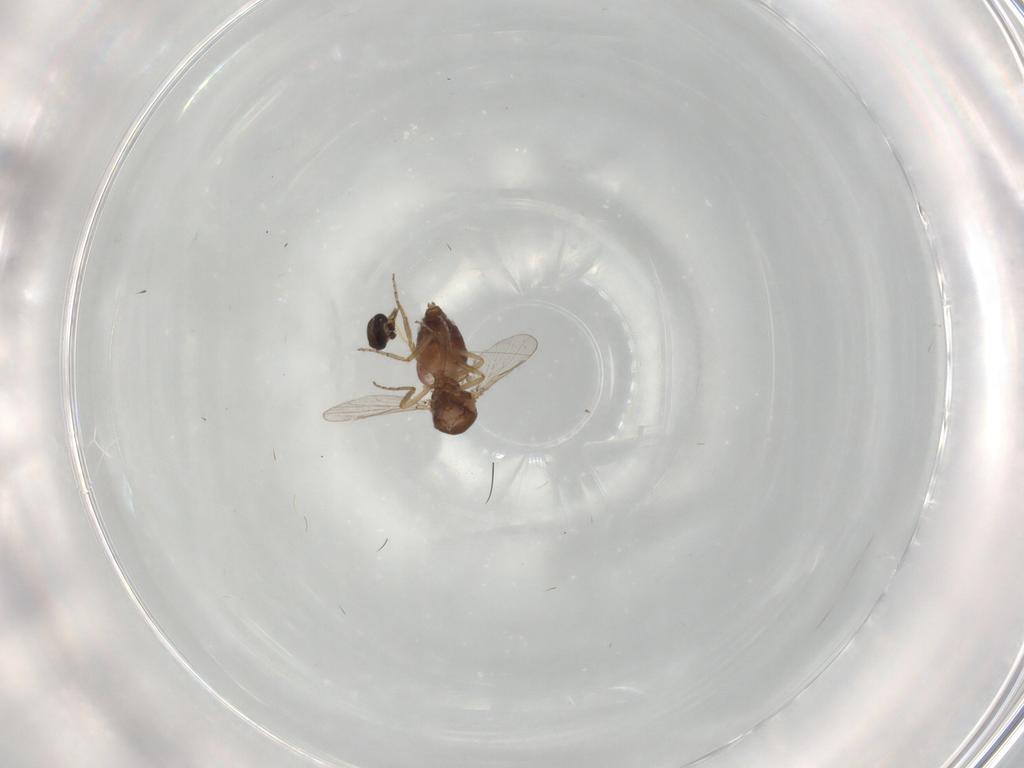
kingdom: Animalia
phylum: Arthropoda
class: Insecta
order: Diptera
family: Ceratopogonidae
